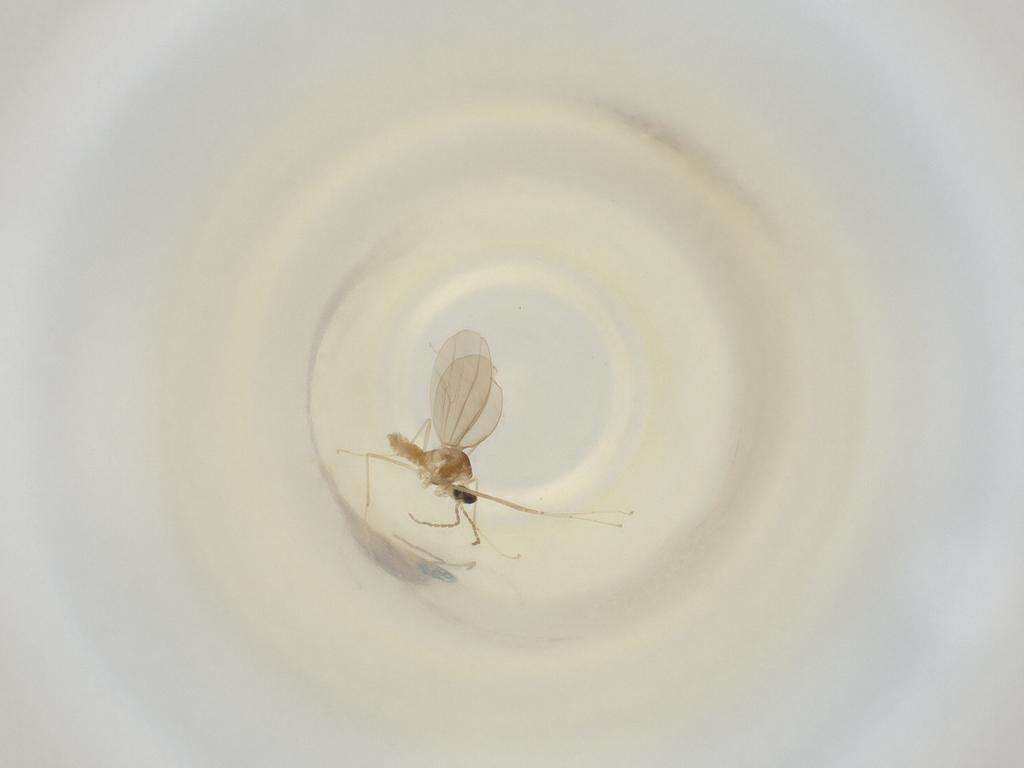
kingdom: Animalia
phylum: Arthropoda
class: Insecta
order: Diptera
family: Cecidomyiidae
